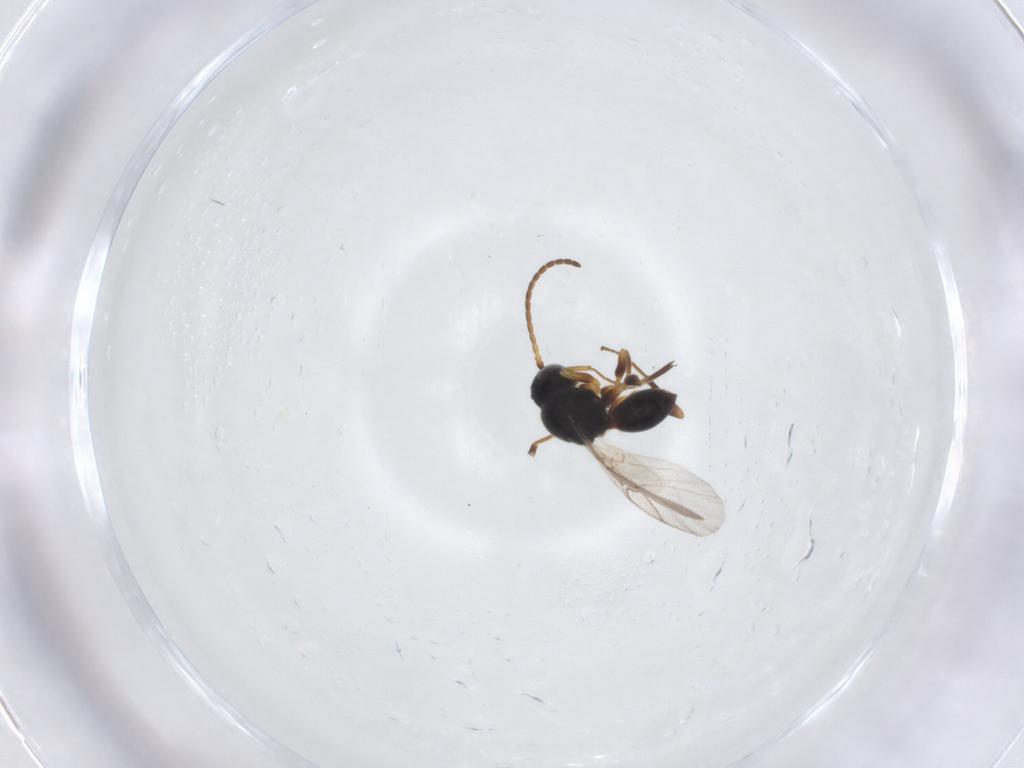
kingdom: Animalia
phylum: Arthropoda
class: Insecta
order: Hymenoptera
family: Cynipidae
